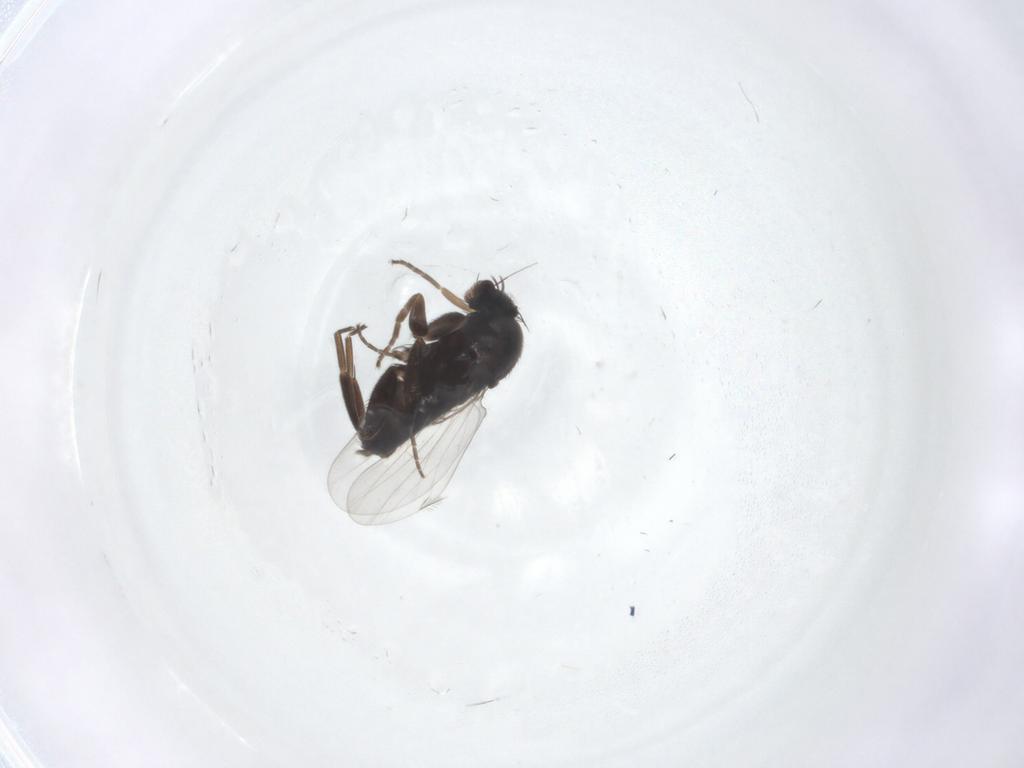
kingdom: Animalia
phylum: Arthropoda
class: Insecta
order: Diptera
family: Phoridae
